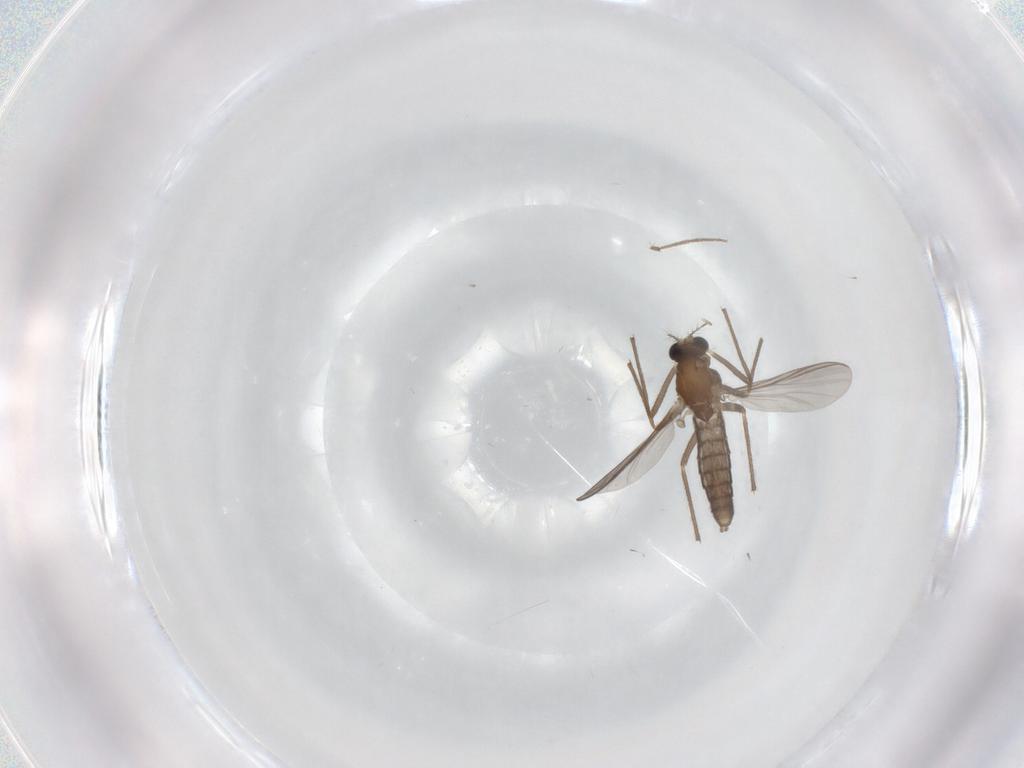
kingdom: Animalia
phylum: Arthropoda
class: Insecta
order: Diptera
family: Chironomidae
